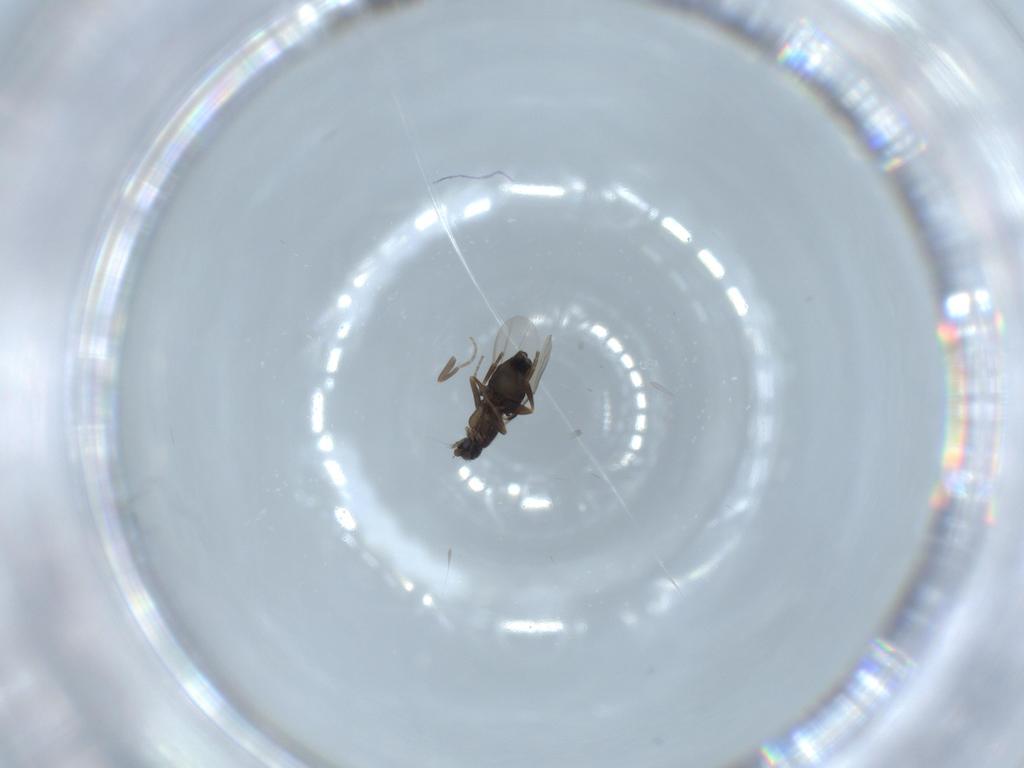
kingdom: Animalia
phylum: Arthropoda
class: Insecta
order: Diptera
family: Phoridae
